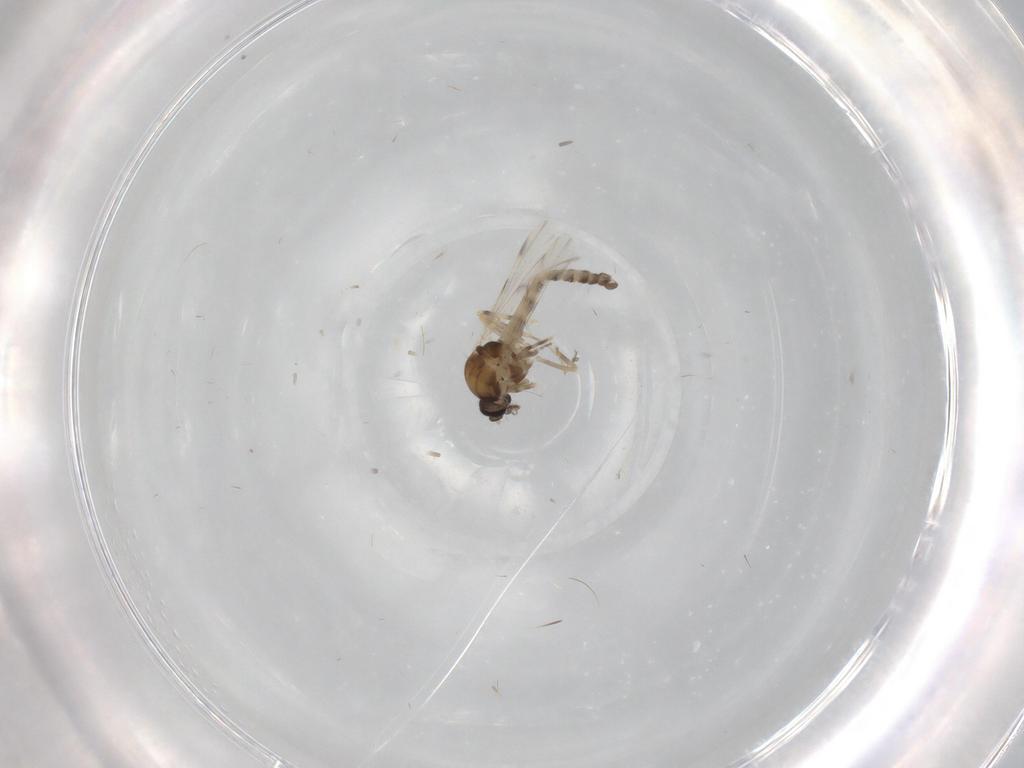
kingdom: Animalia
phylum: Arthropoda
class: Insecta
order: Diptera
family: Ceratopogonidae
